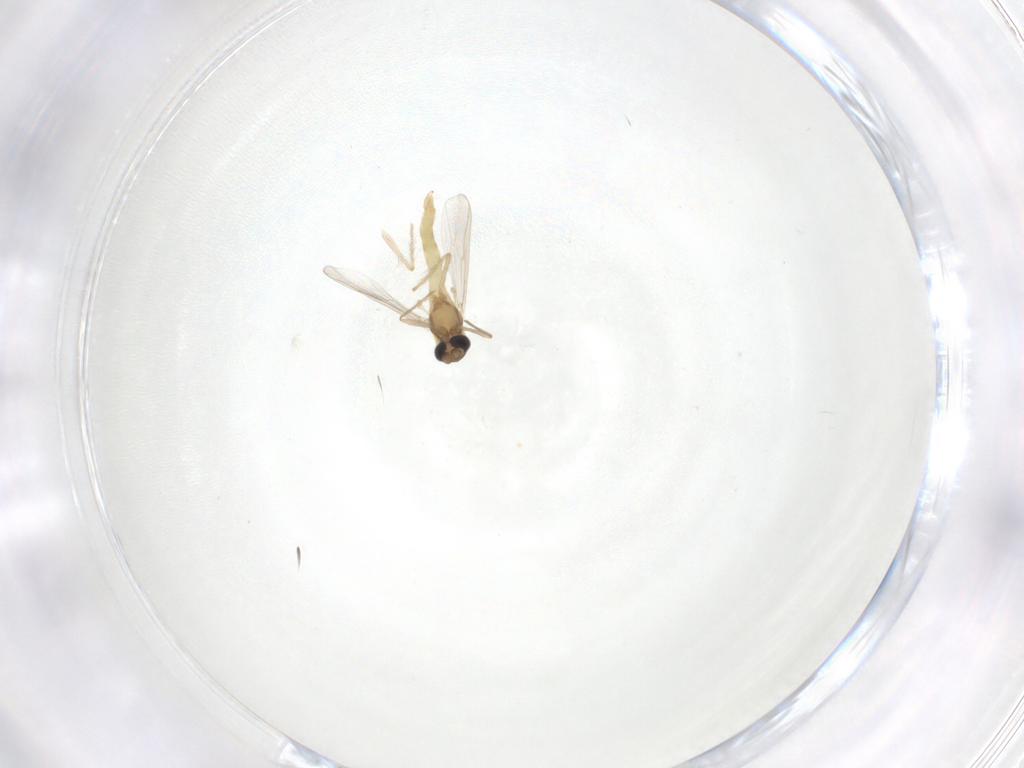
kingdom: Animalia
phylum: Arthropoda
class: Insecta
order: Diptera
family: Chironomidae
